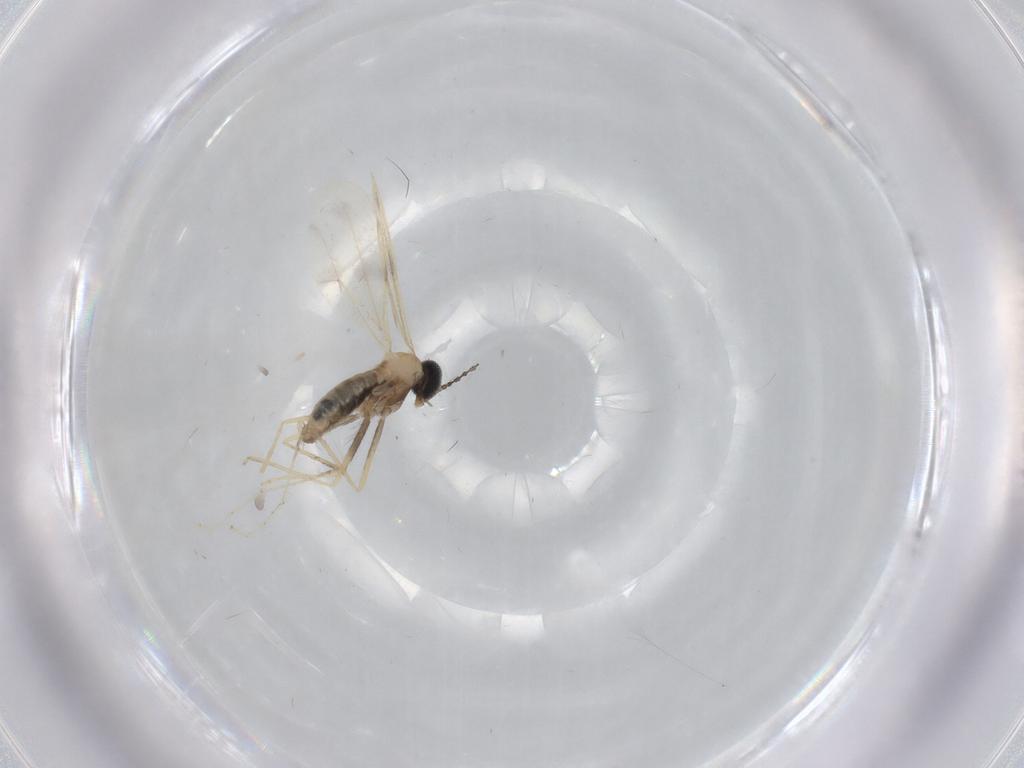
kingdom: Animalia
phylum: Arthropoda
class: Insecta
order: Diptera
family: Cecidomyiidae
